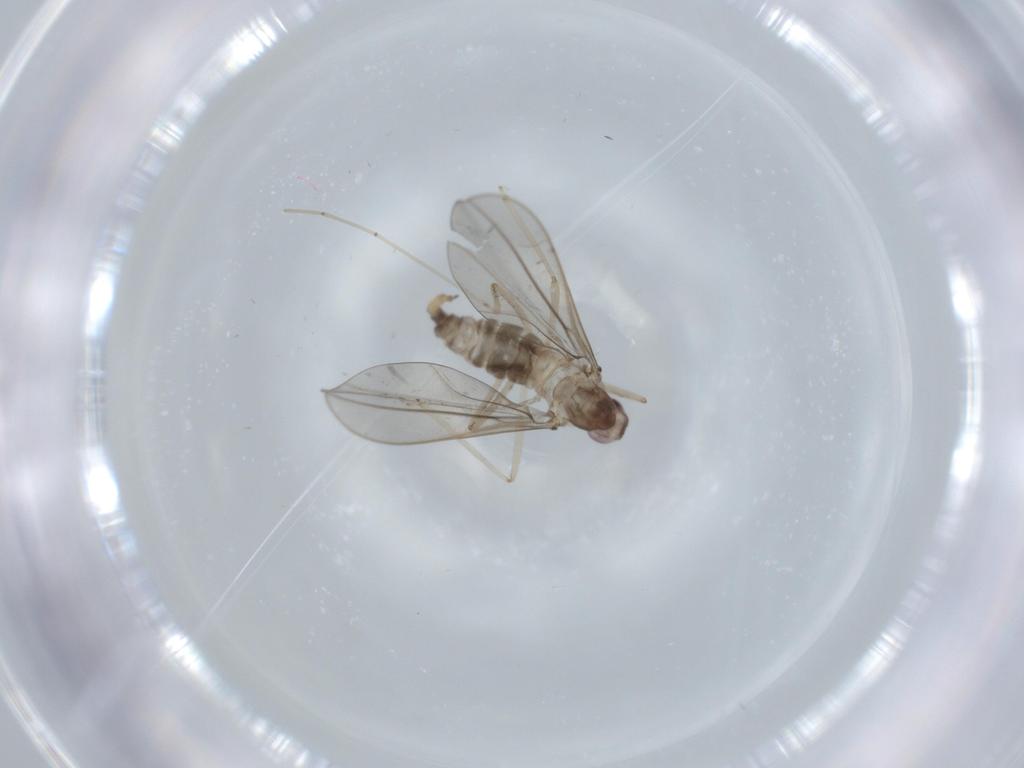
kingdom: Animalia
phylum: Arthropoda
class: Insecta
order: Diptera
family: Cecidomyiidae
